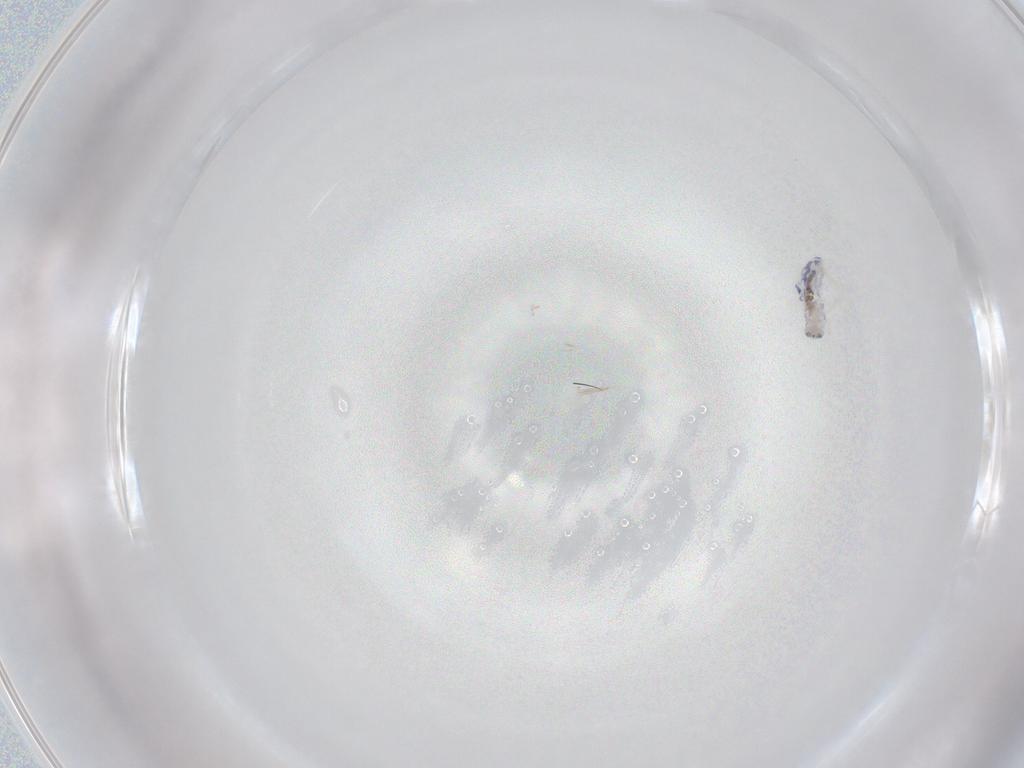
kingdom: Animalia
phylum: Arthropoda
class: Collembola
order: Entomobryomorpha
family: Entomobryidae
